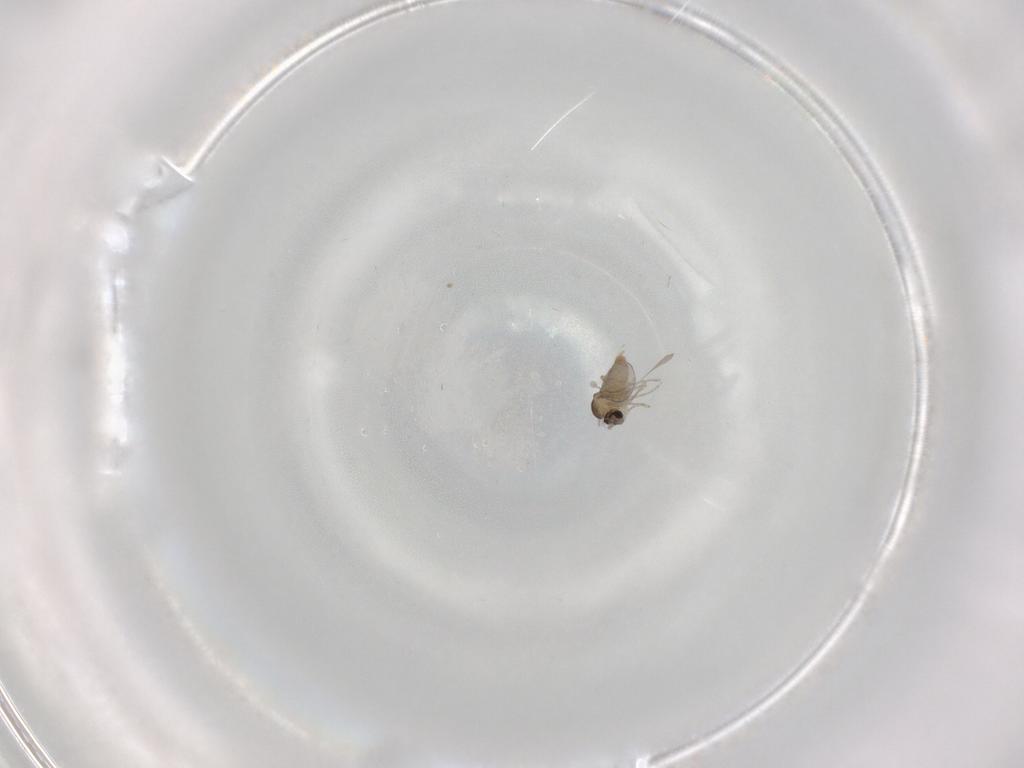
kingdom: Animalia
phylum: Arthropoda
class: Insecta
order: Diptera
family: Cecidomyiidae
